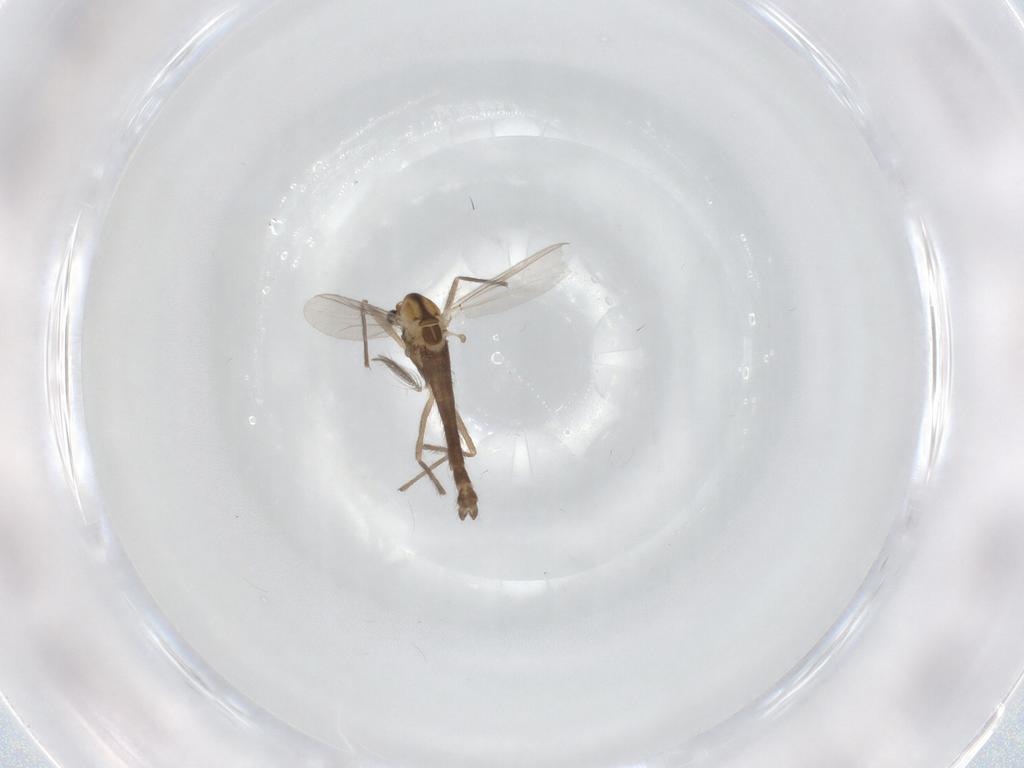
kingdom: Animalia
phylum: Arthropoda
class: Insecta
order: Diptera
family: Chironomidae
